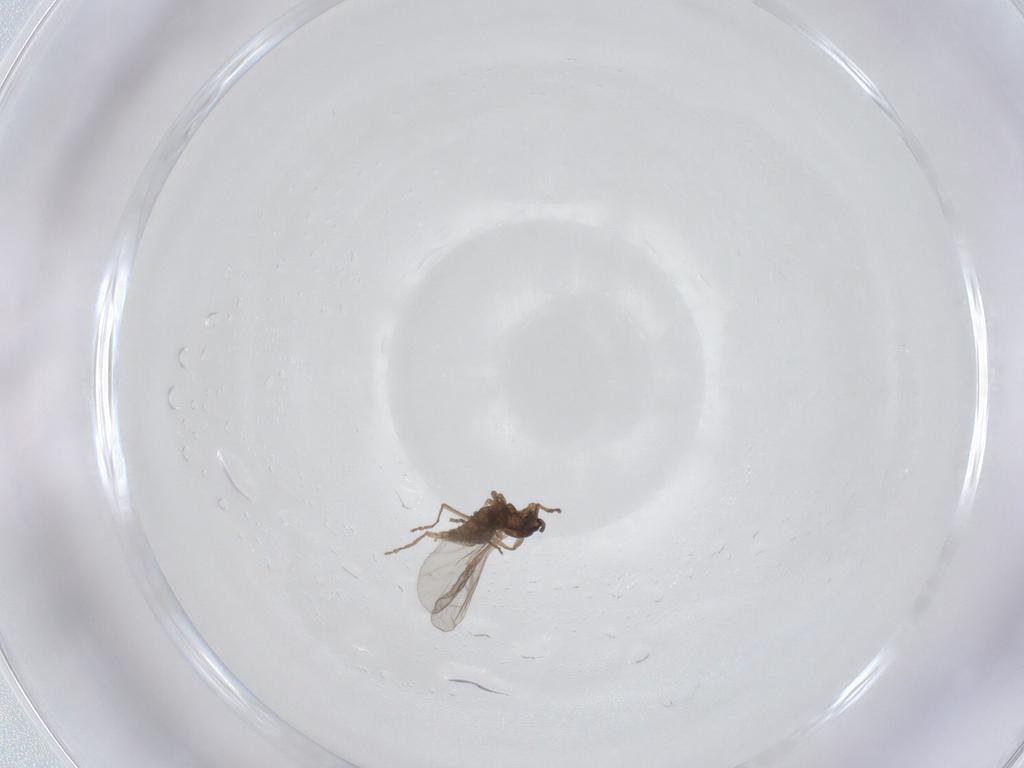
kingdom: Animalia
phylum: Arthropoda
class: Insecta
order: Diptera
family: Cecidomyiidae
